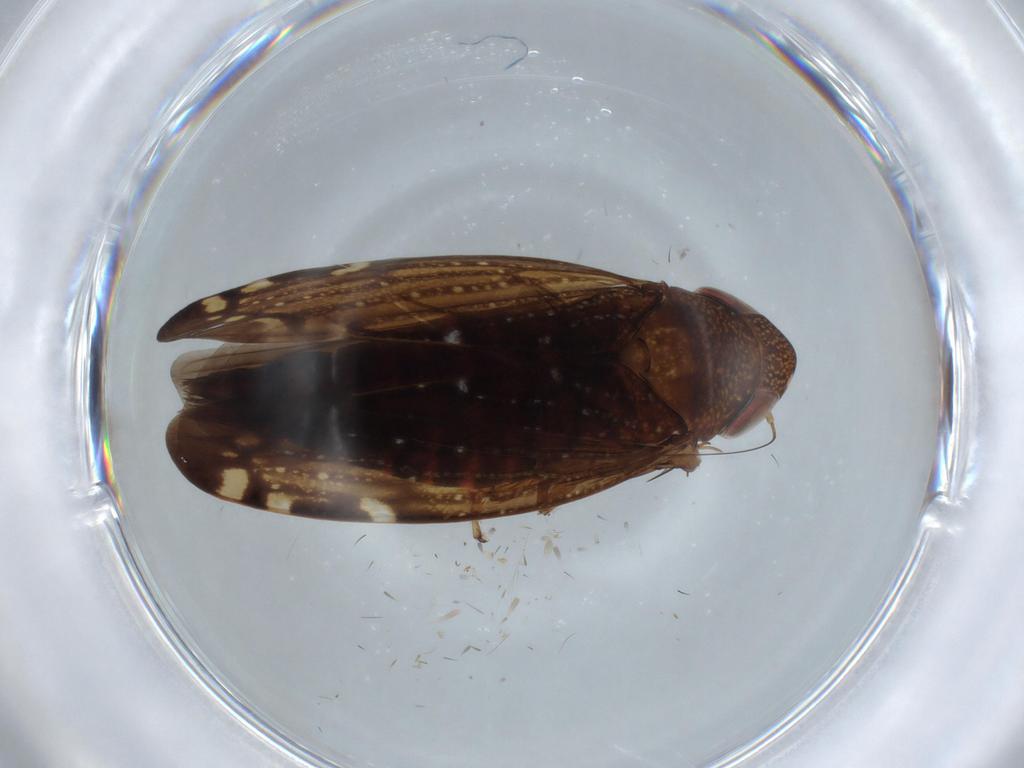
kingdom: Animalia
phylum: Arthropoda
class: Insecta
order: Hemiptera
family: Cicadellidae
